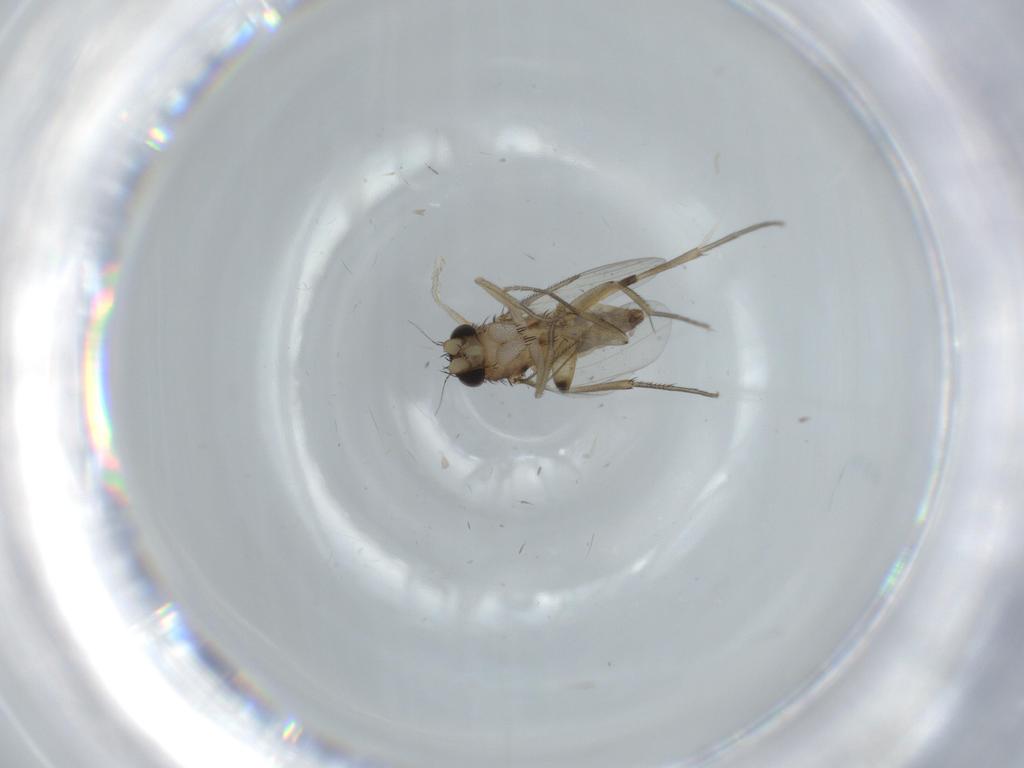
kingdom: Animalia
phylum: Arthropoda
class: Insecta
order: Diptera
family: Phoridae
